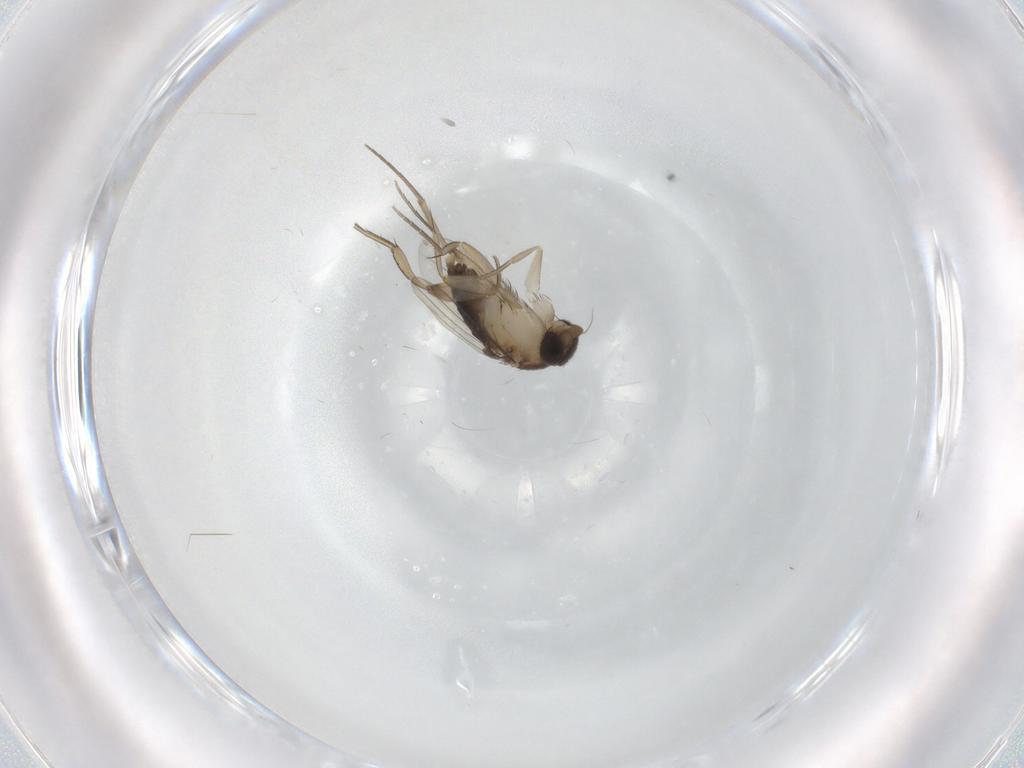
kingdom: Animalia
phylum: Arthropoda
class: Insecta
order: Diptera
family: Phoridae
